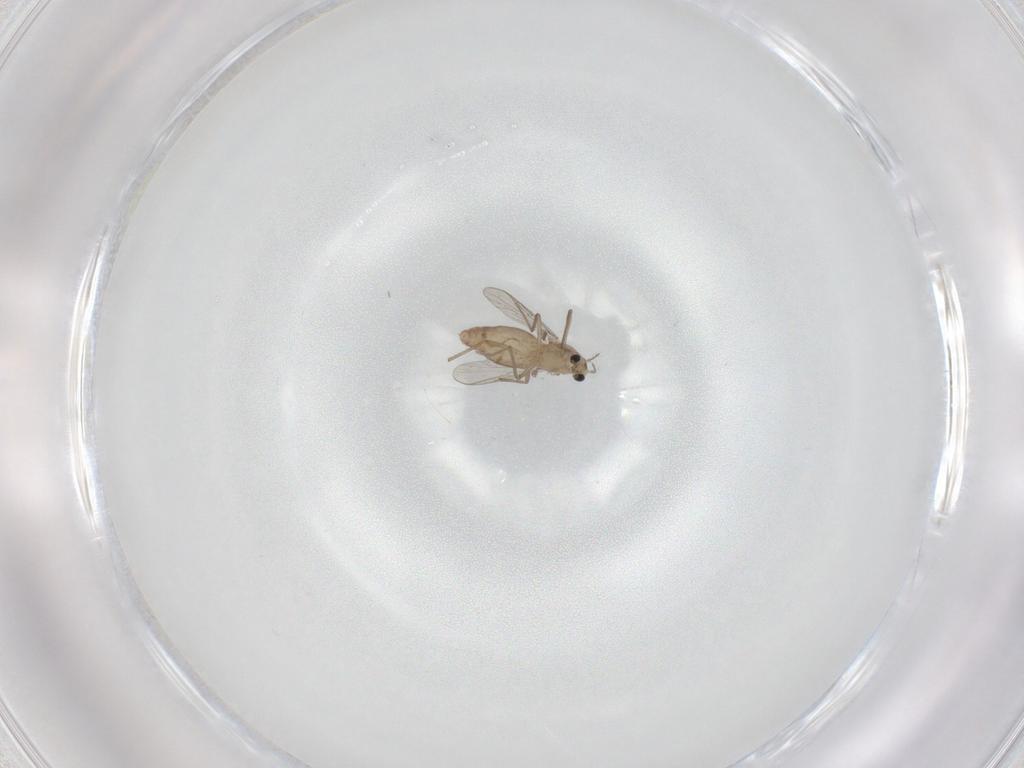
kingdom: Animalia
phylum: Arthropoda
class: Insecta
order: Diptera
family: Chironomidae
